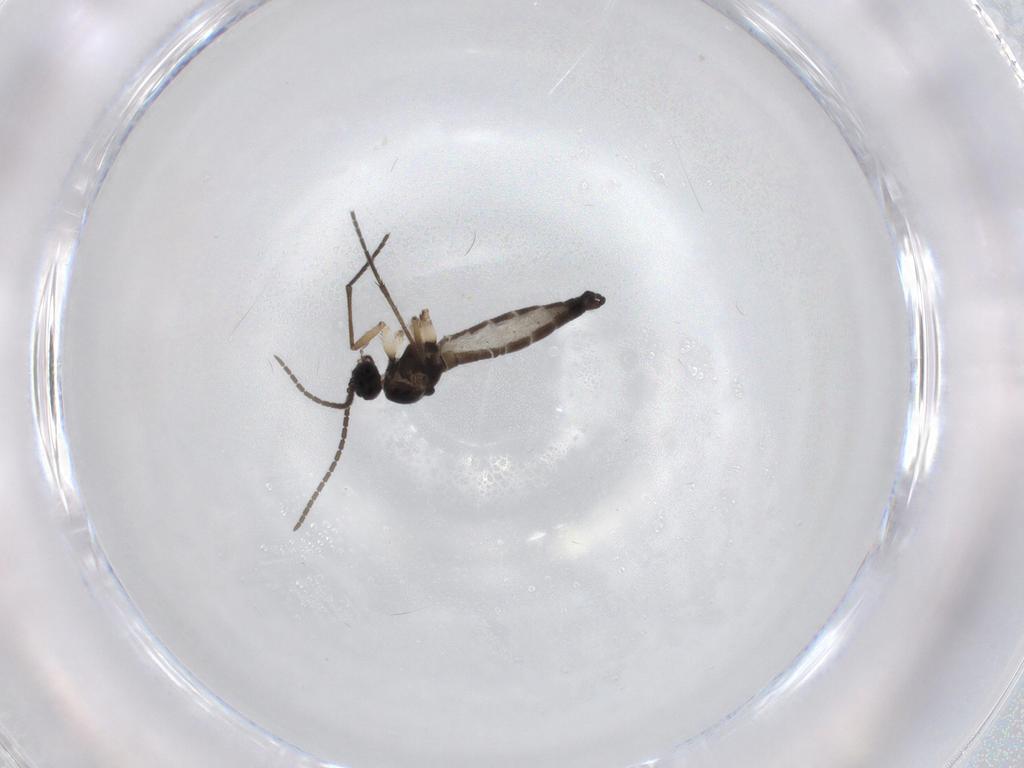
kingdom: Animalia
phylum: Arthropoda
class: Insecta
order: Diptera
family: Sciaridae
